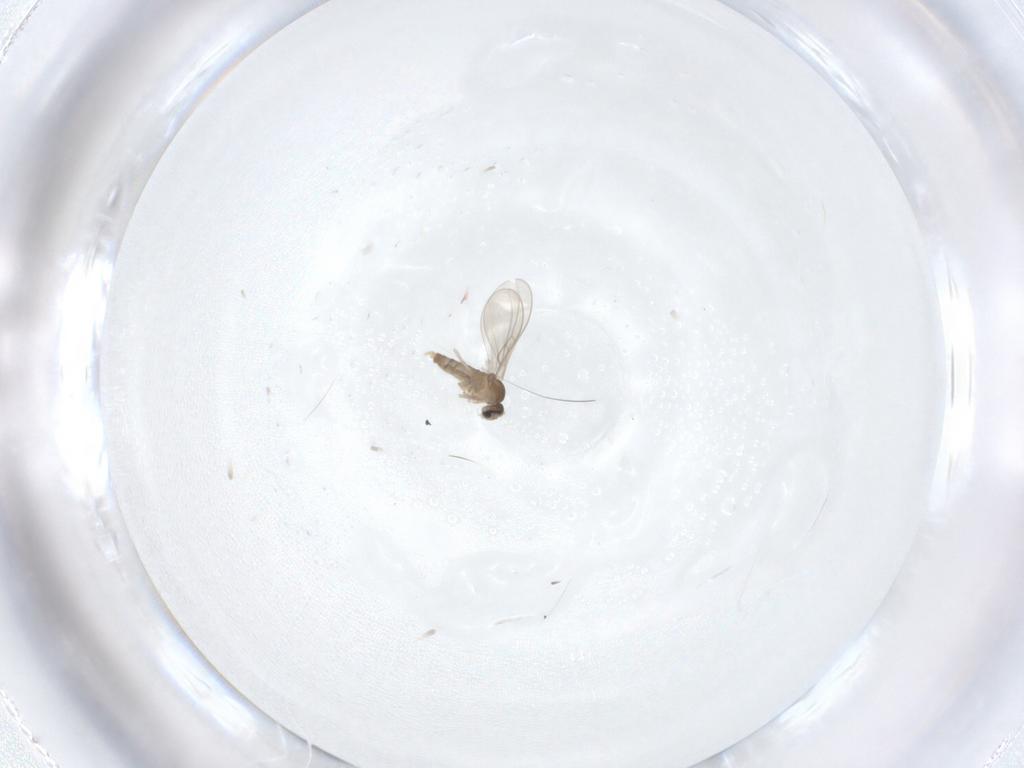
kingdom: Animalia
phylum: Arthropoda
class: Insecta
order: Diptera
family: Cecidomyiidae
